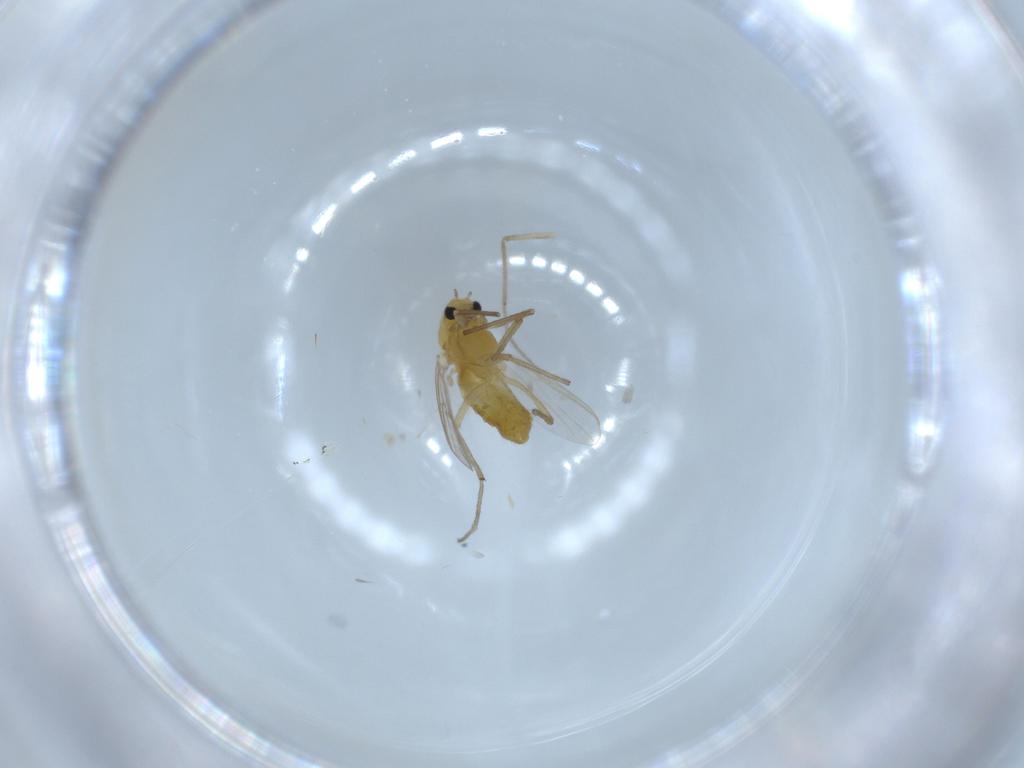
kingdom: Animalia
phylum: Arthropoda
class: Insecta
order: Diptera
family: Chironomidae
